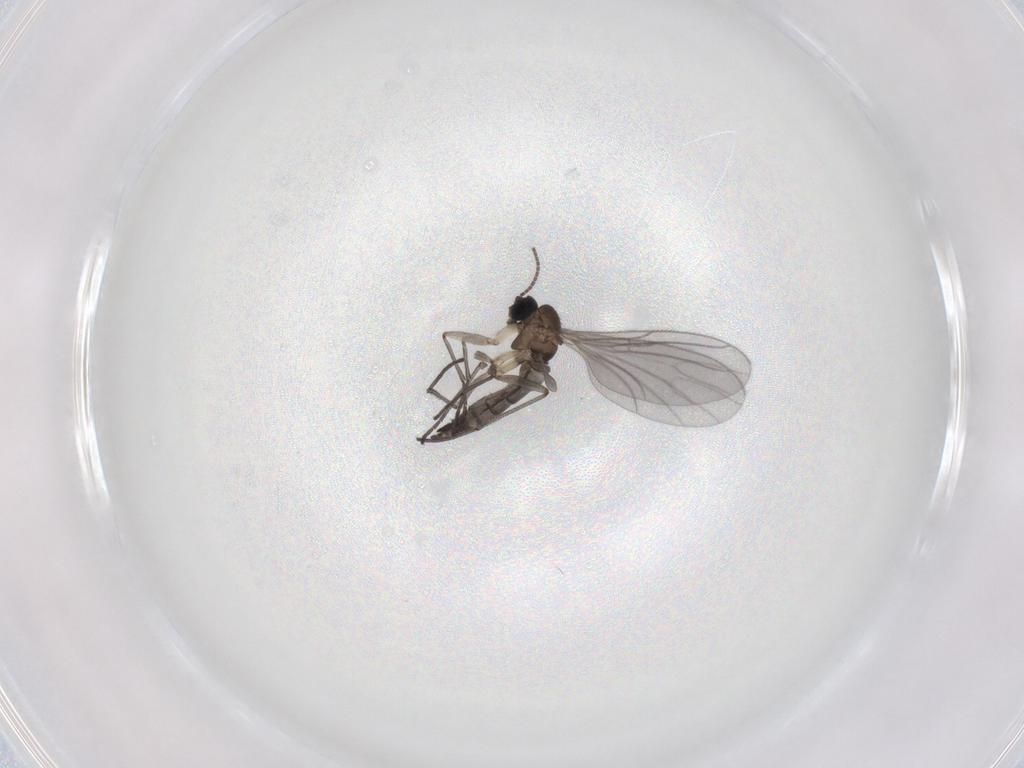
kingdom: Animalia
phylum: Arthropoda
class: Insecta
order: Diptera
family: Sciaridae
